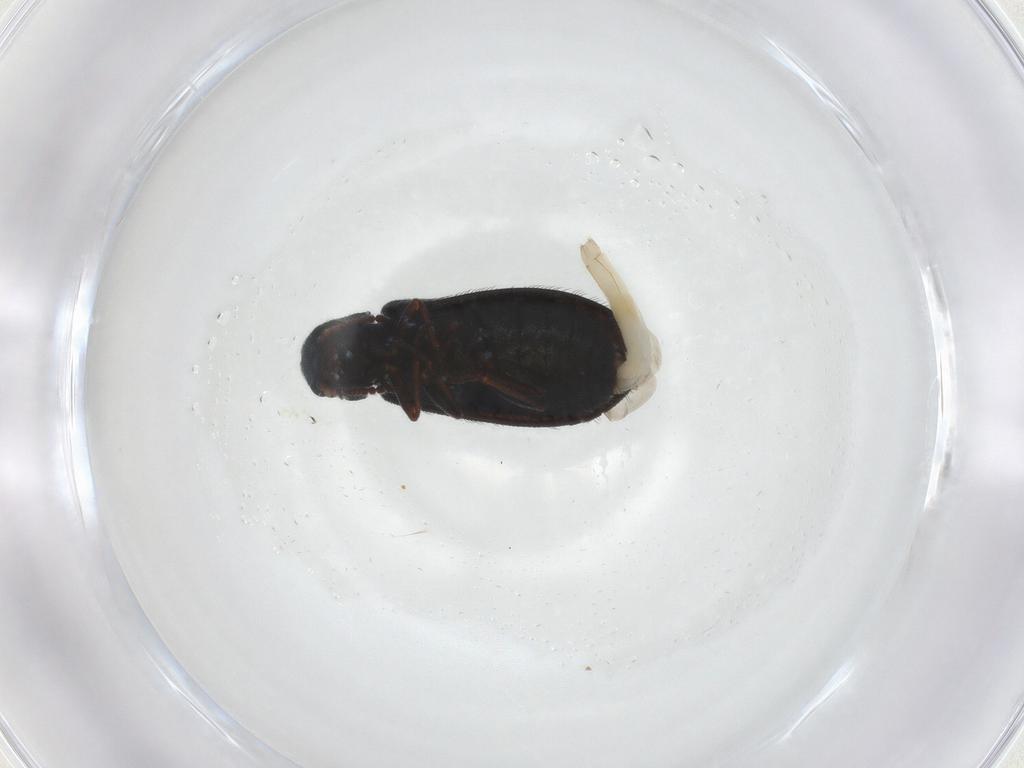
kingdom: Animalia
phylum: Arthropoda
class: Insecta
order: Coleoptera
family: Melyridae
